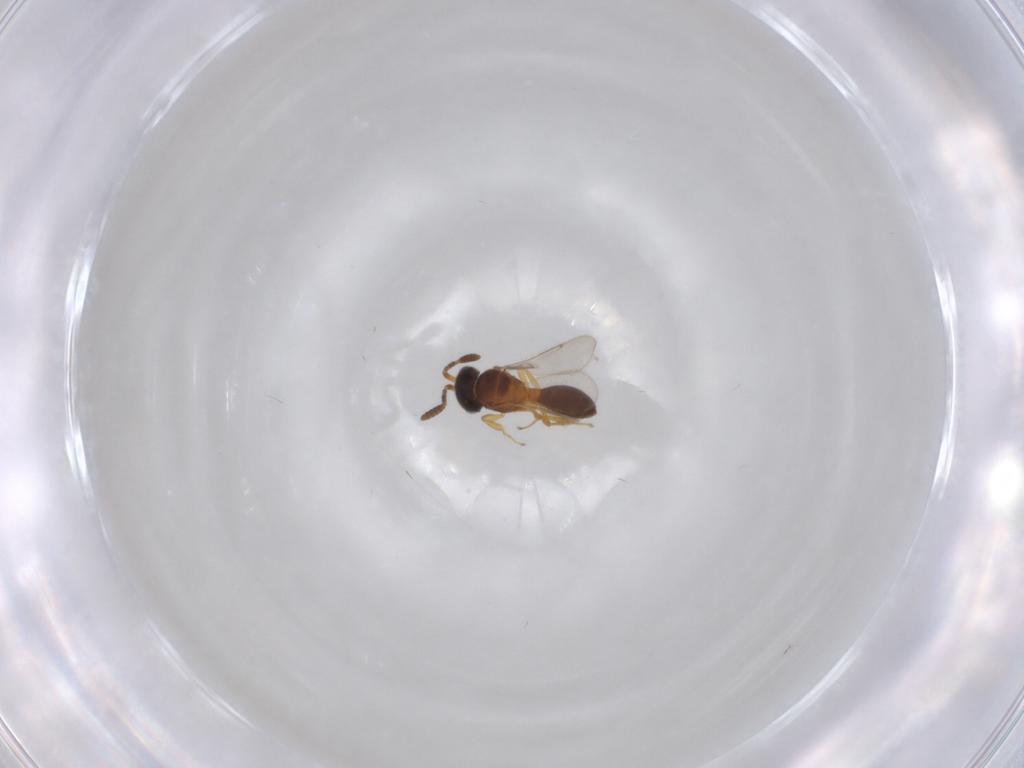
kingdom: Animalia
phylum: Arthropoda
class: Insecta
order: Hymenoptera
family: Scelionidae
